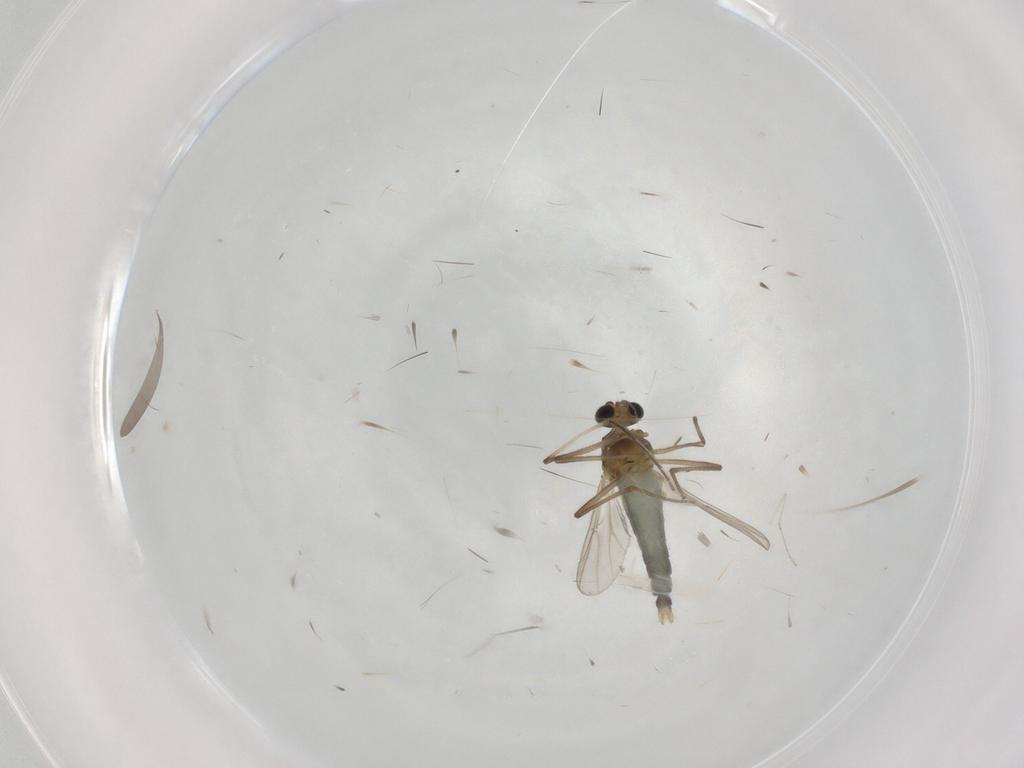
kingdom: Animalia
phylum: Arthropoda
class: Insecta
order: Diptera
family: Chironomidae
